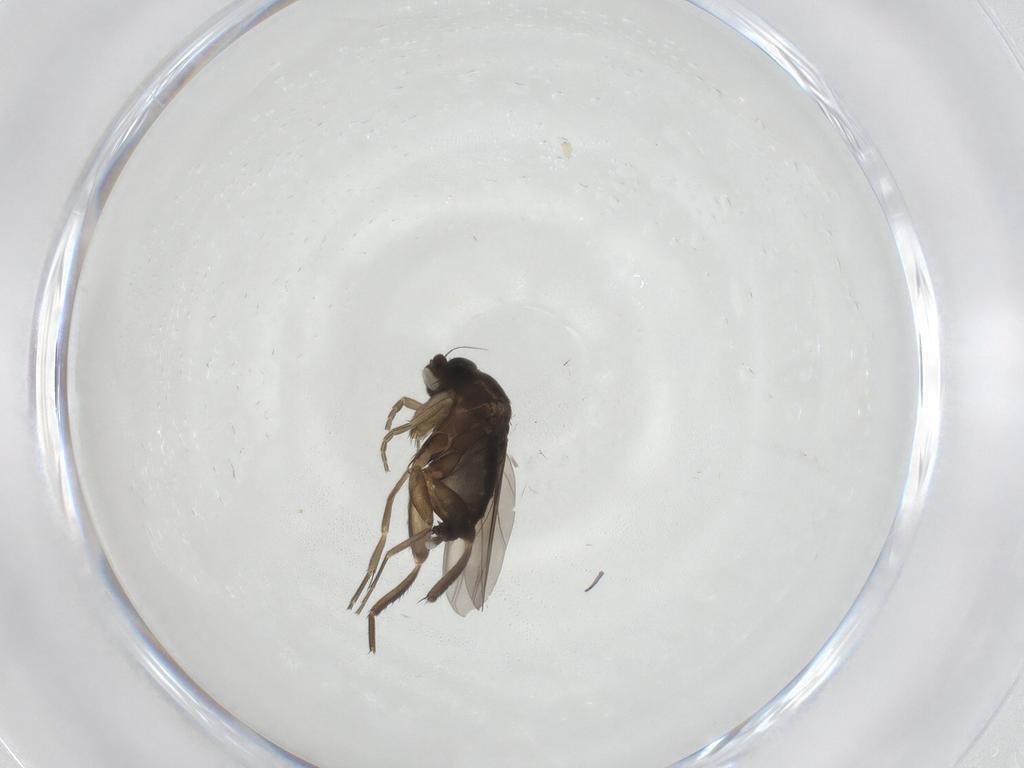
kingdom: Animalia
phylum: Arthropoda
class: Insecta
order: Diptera
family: Phoridae
